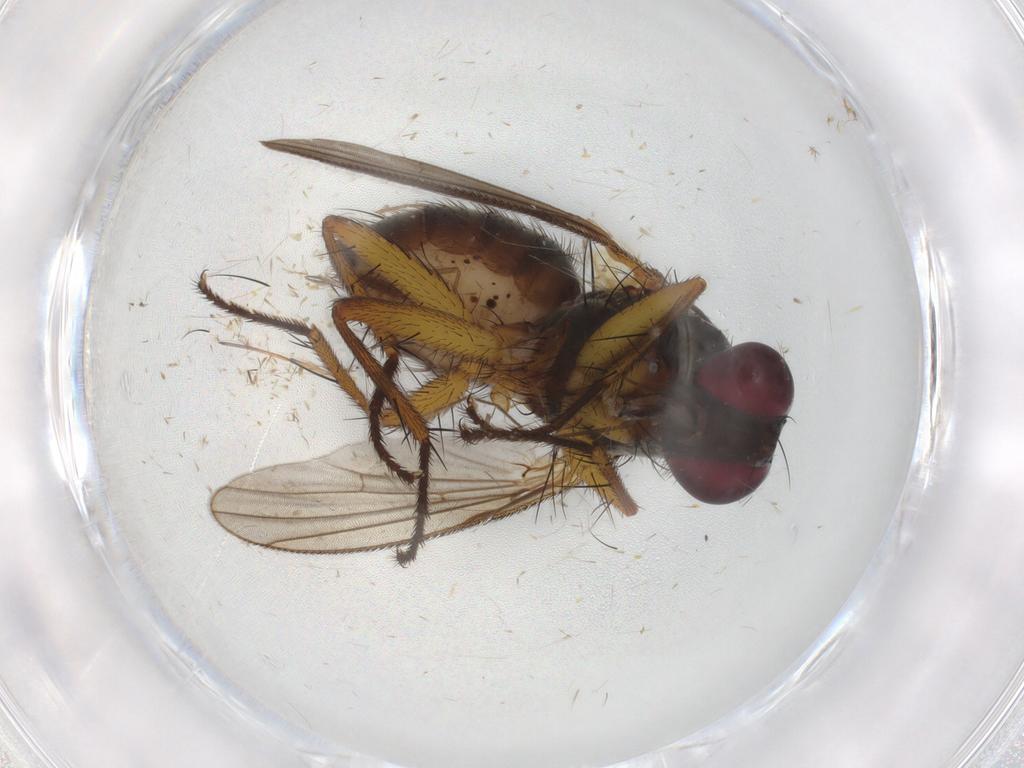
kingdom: Animalia
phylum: Arthropoda
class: Insecta
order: Diptera
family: Muscidae
